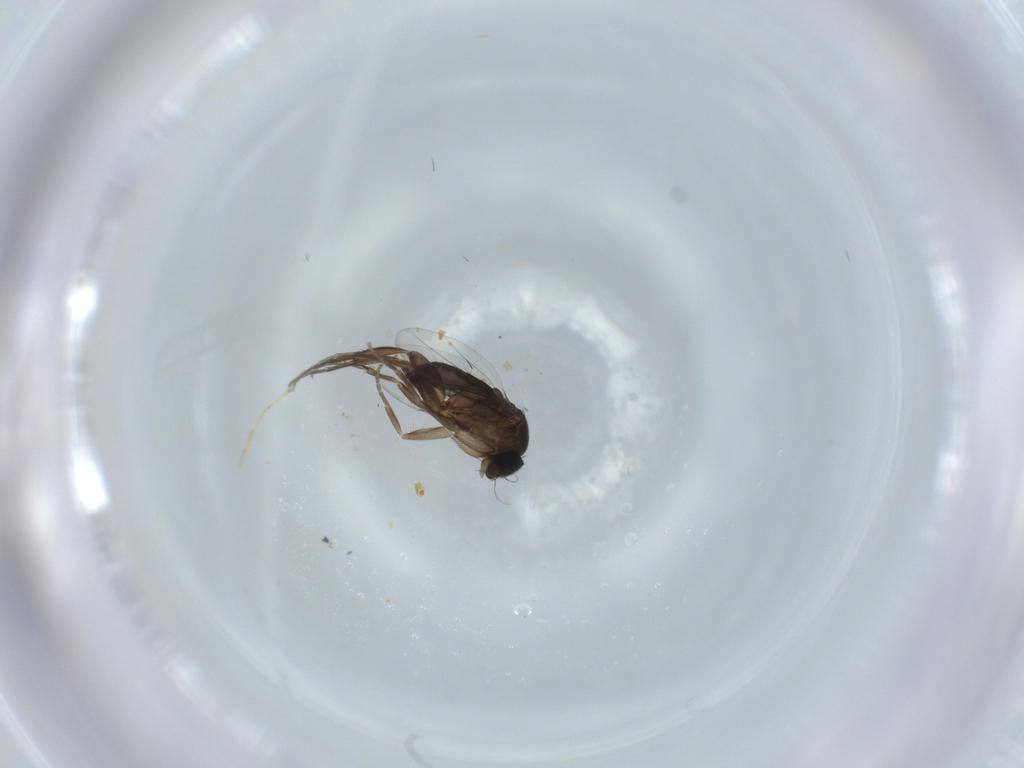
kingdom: Animalia
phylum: Arthropoda
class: Insecta
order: Diptera
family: Phoridae
